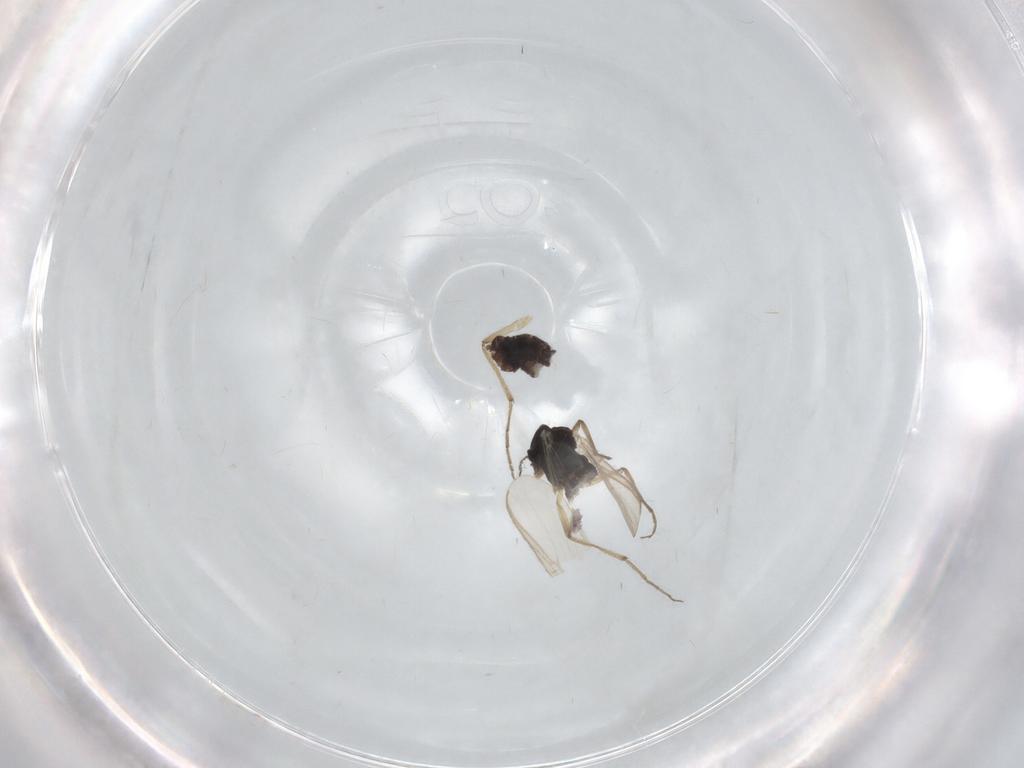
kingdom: Animalia
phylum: Arthropoda
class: Insecta
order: Diptera
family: Chironomidae
